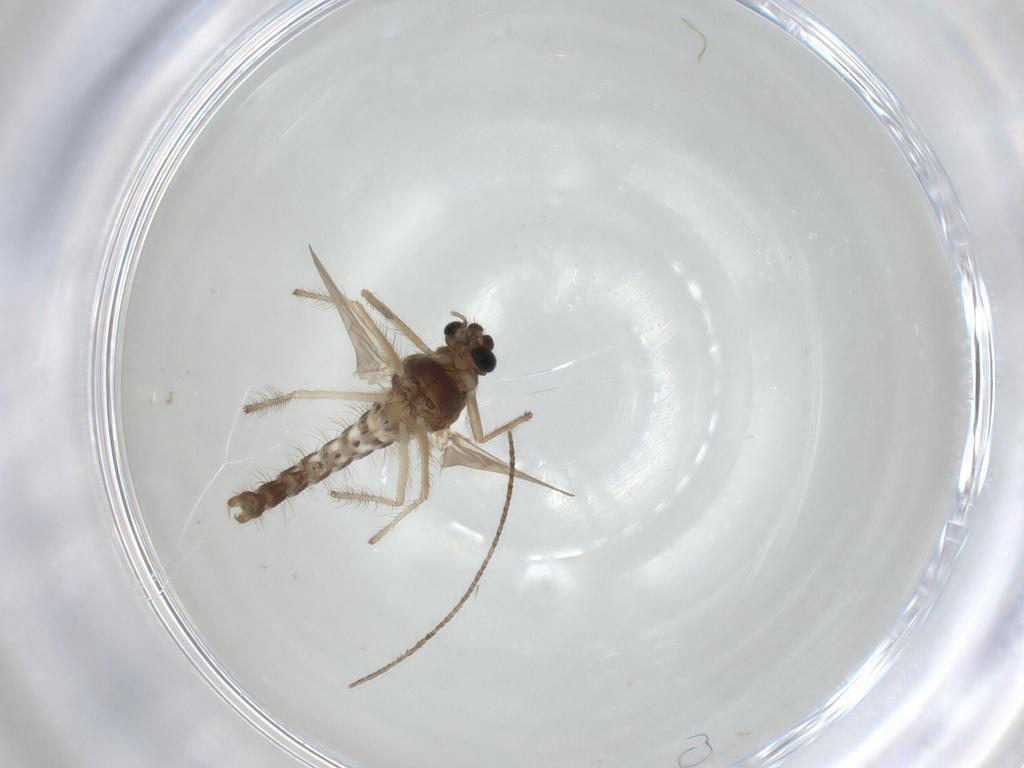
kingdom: Animalia
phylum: Arthropoda
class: Insecta
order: Diptera
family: Chironomidae
